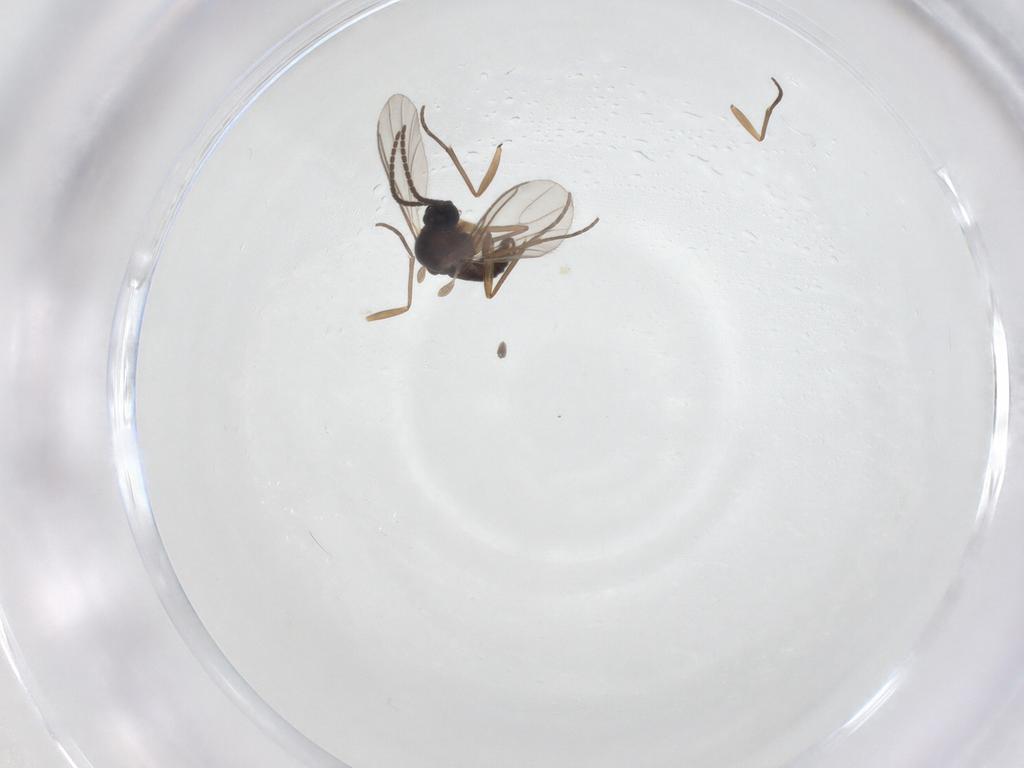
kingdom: Animalia
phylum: Arthropoda
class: Insecta
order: Diptera
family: Sciaridae
